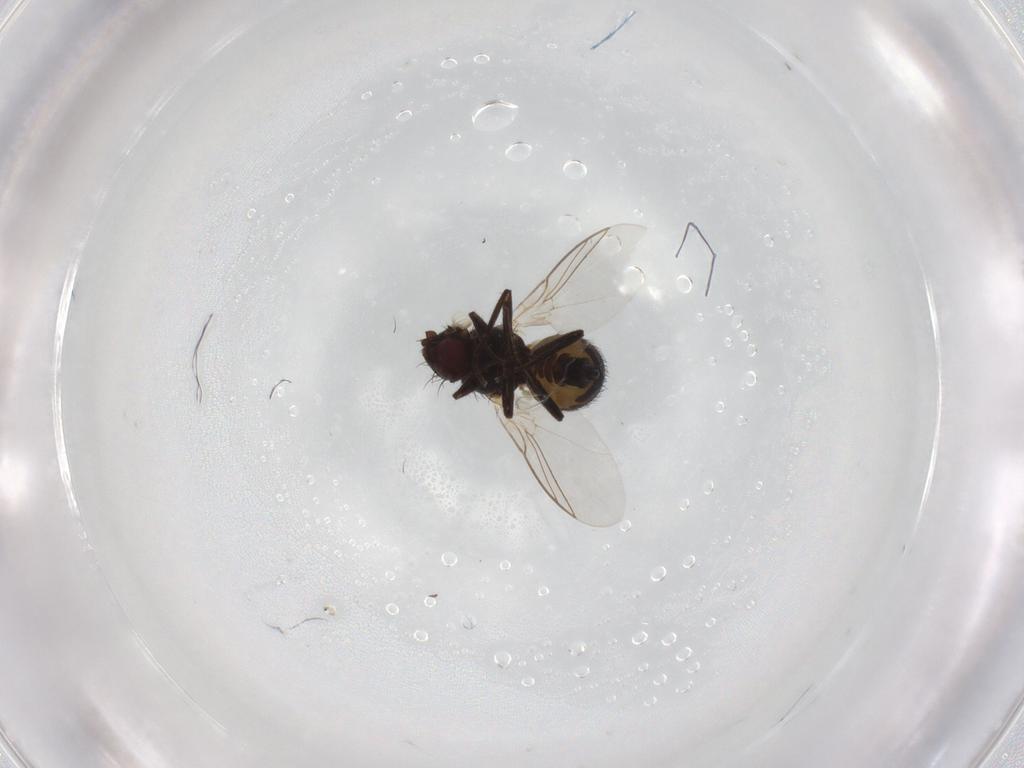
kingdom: Animalia
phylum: Arthropoda
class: Insecta
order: Diptera
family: Agromyzidae
